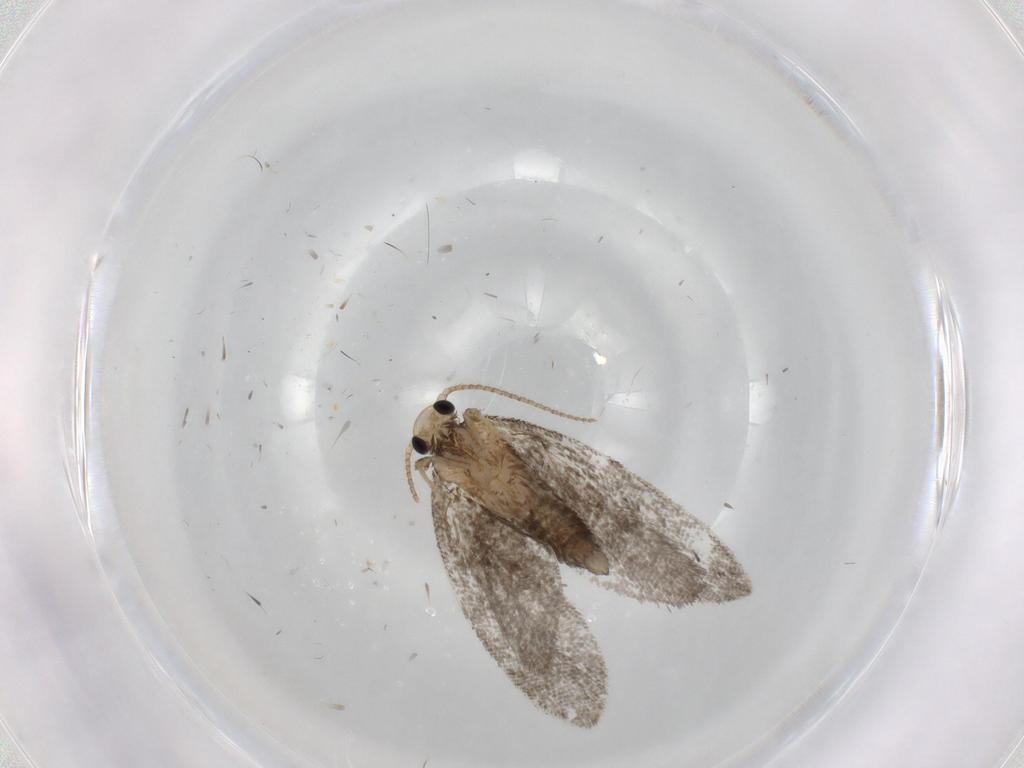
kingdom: Animalia
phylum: Arthropoda
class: Insecta
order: Lepidoptera
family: Psychidae
